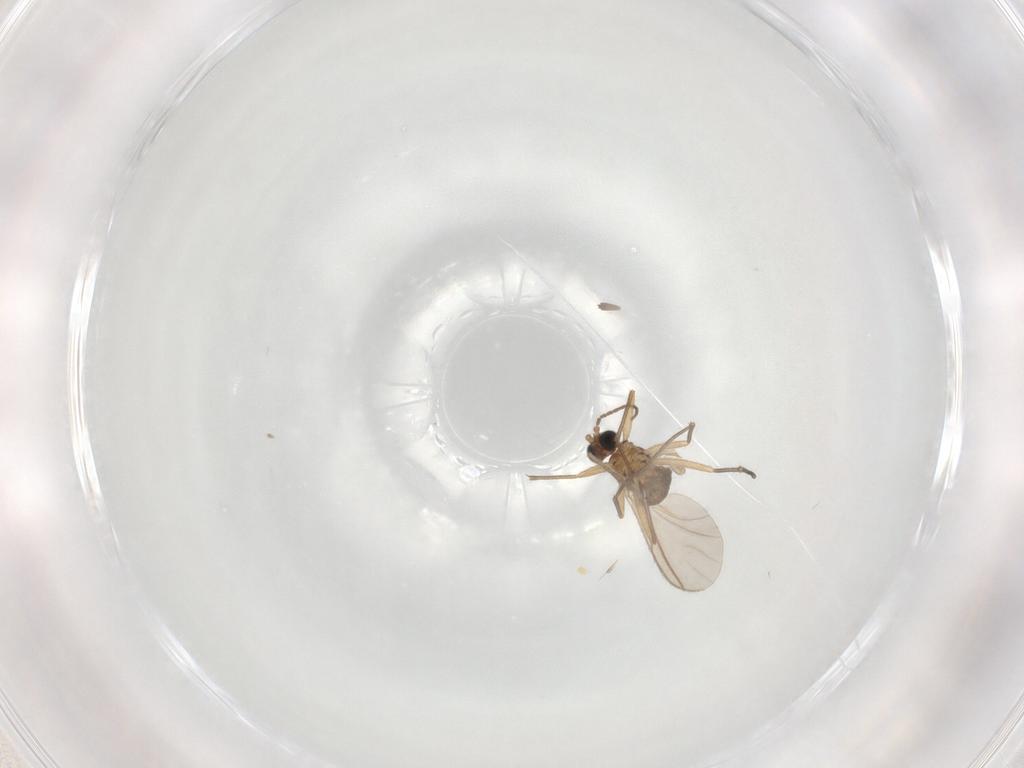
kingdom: Animalia
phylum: Arthropoda
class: Insecta
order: Diptera
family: Sciaridae
